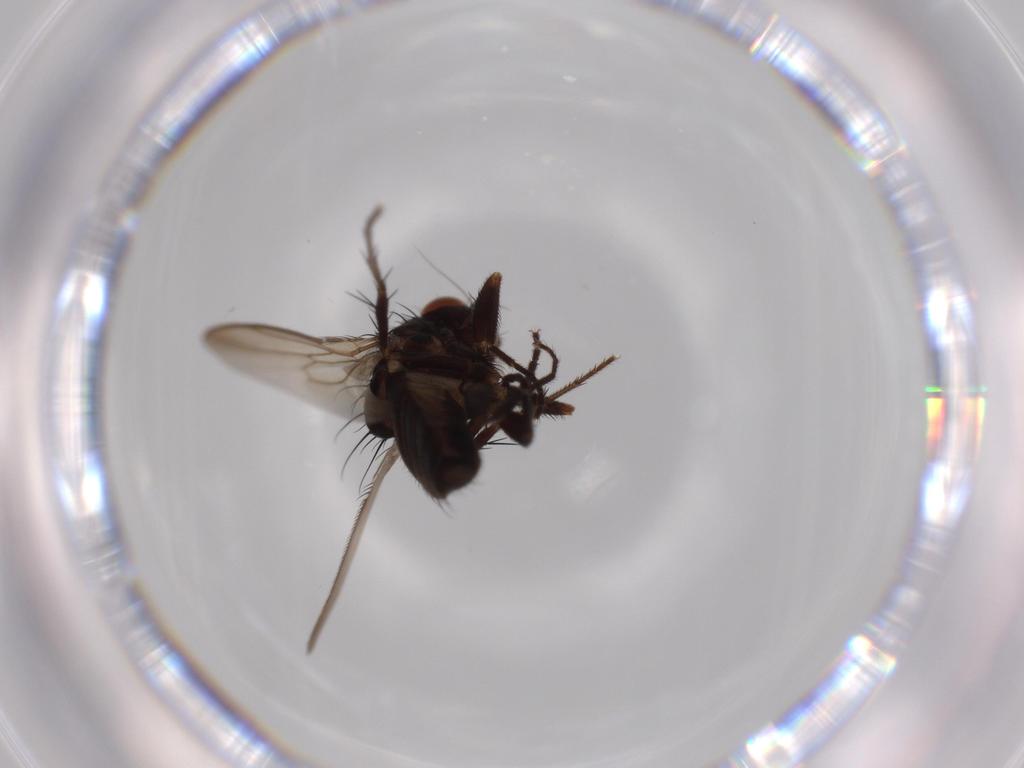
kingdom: Animalia
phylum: Arthropoda
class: Insecta
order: Diptera
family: Sphaeroceridae
